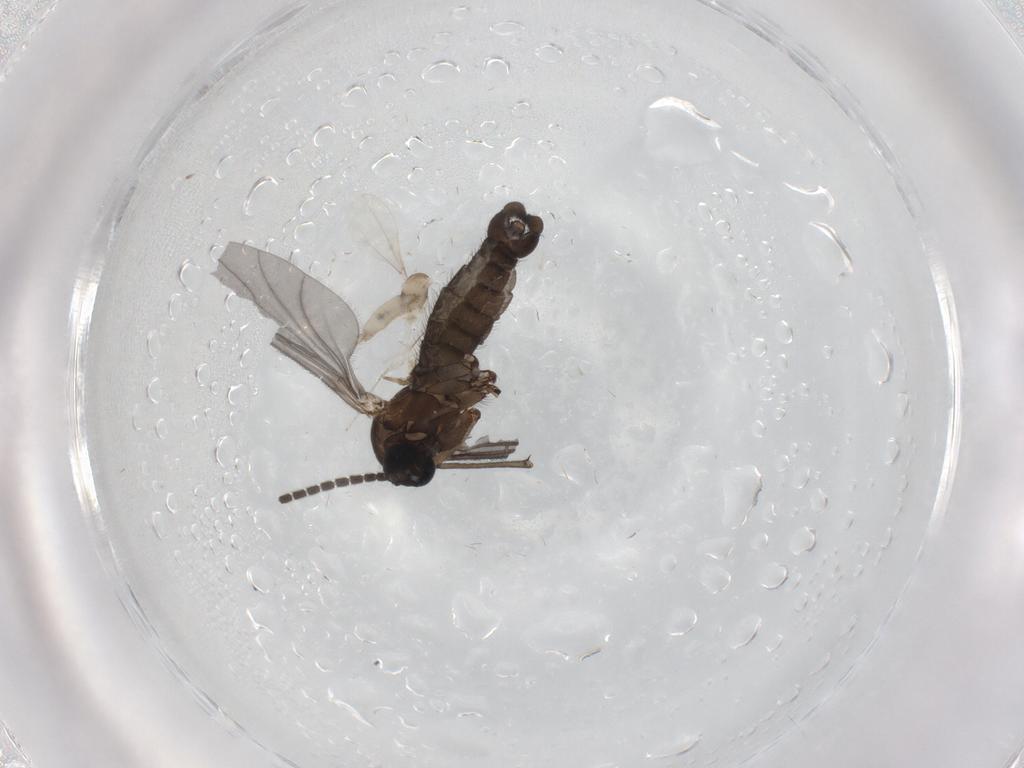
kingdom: Animalia
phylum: Arthropoda
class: Insecta
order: Diptera
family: Sciaridae
